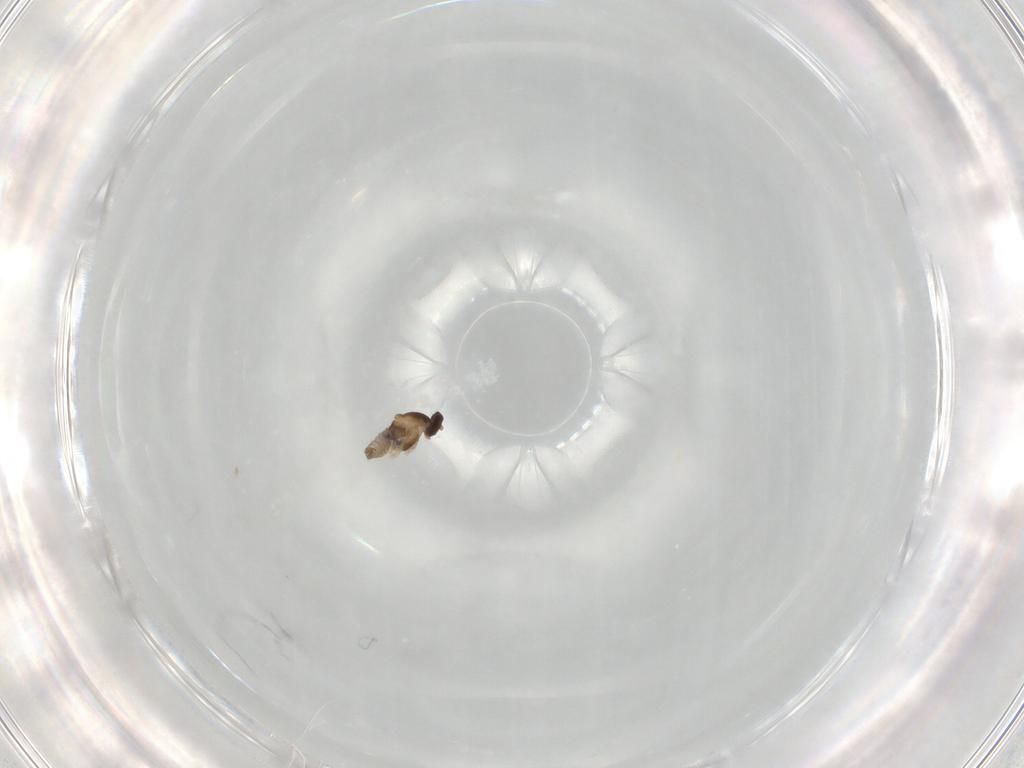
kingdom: Animalia
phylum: Arthropoda
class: Insecta
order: Diptera
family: Cecidomyiidae
